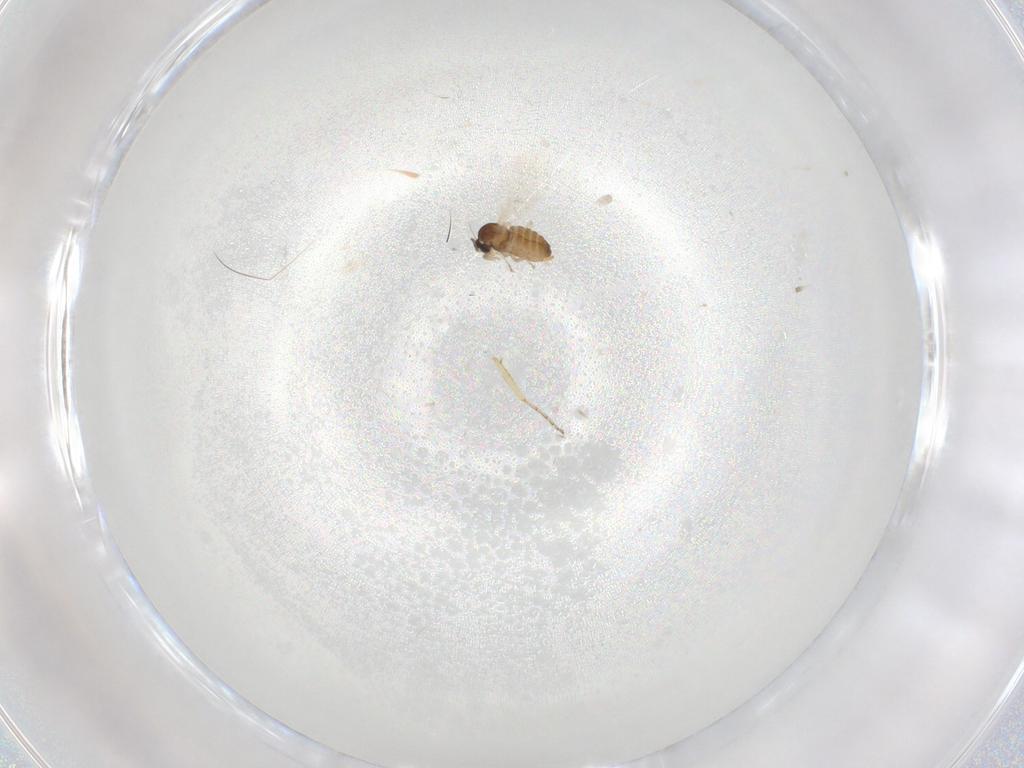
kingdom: Animalia
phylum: Arthropoda
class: Insecta
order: Diptera
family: Cecidomyiidae
